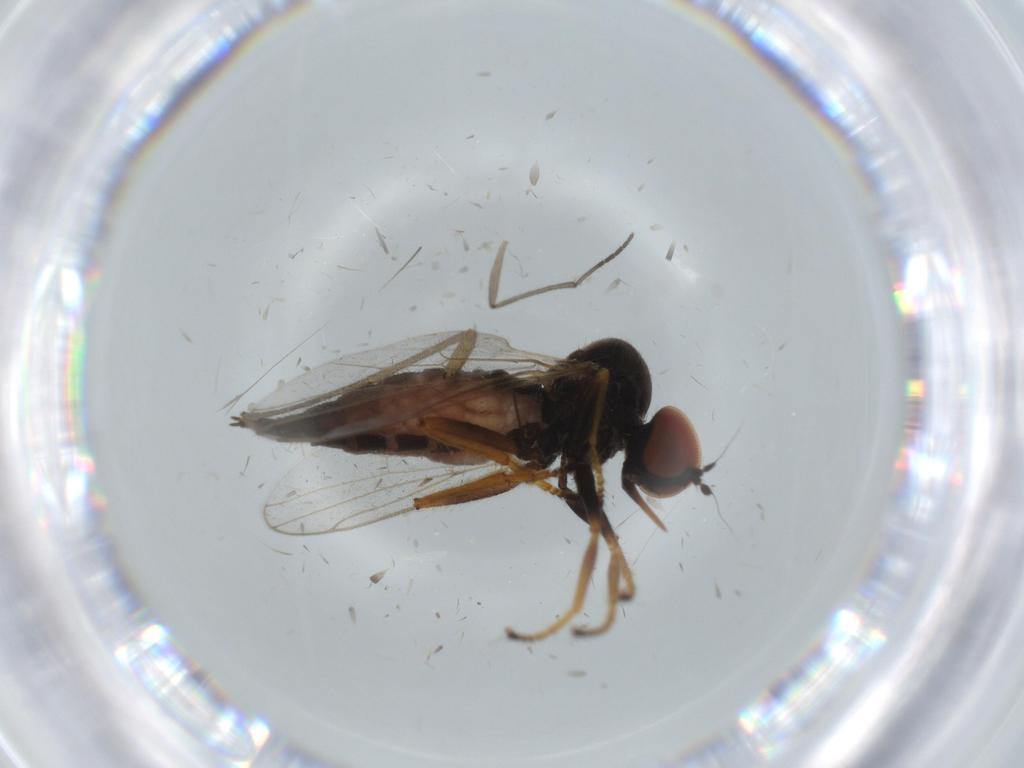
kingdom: Animalia
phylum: Arthropoda
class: Insecta
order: Diptera
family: Cecidomyiidae
